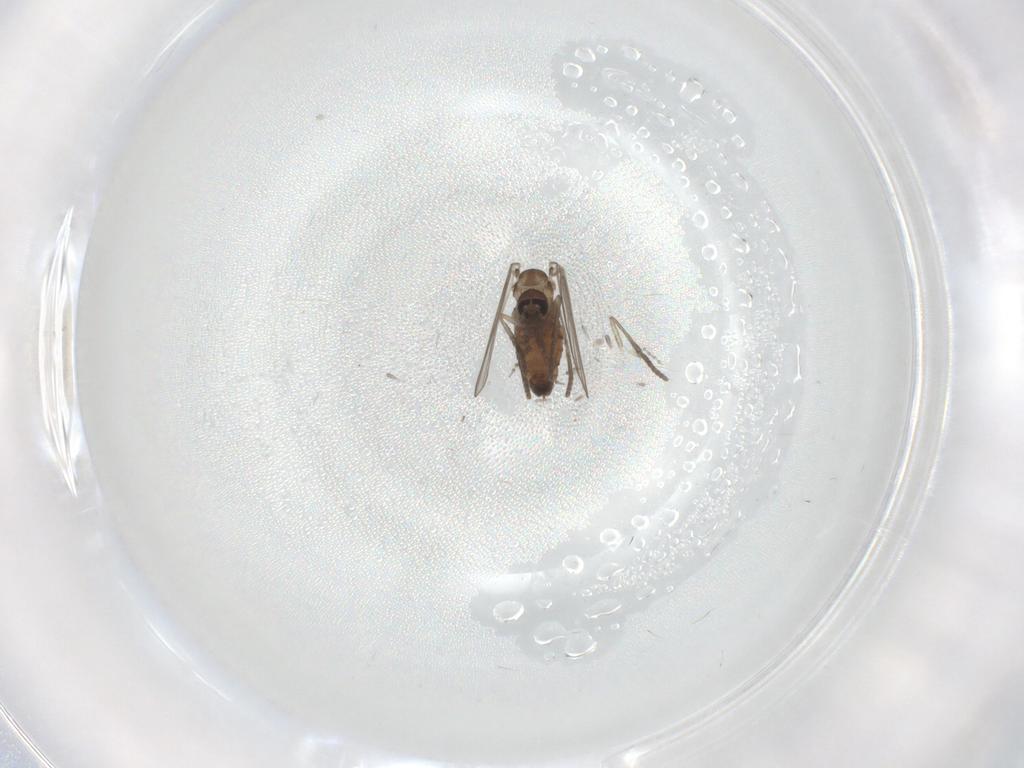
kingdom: Animalia
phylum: Arthropoda
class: Insecta
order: Diptera
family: Psychodidae
